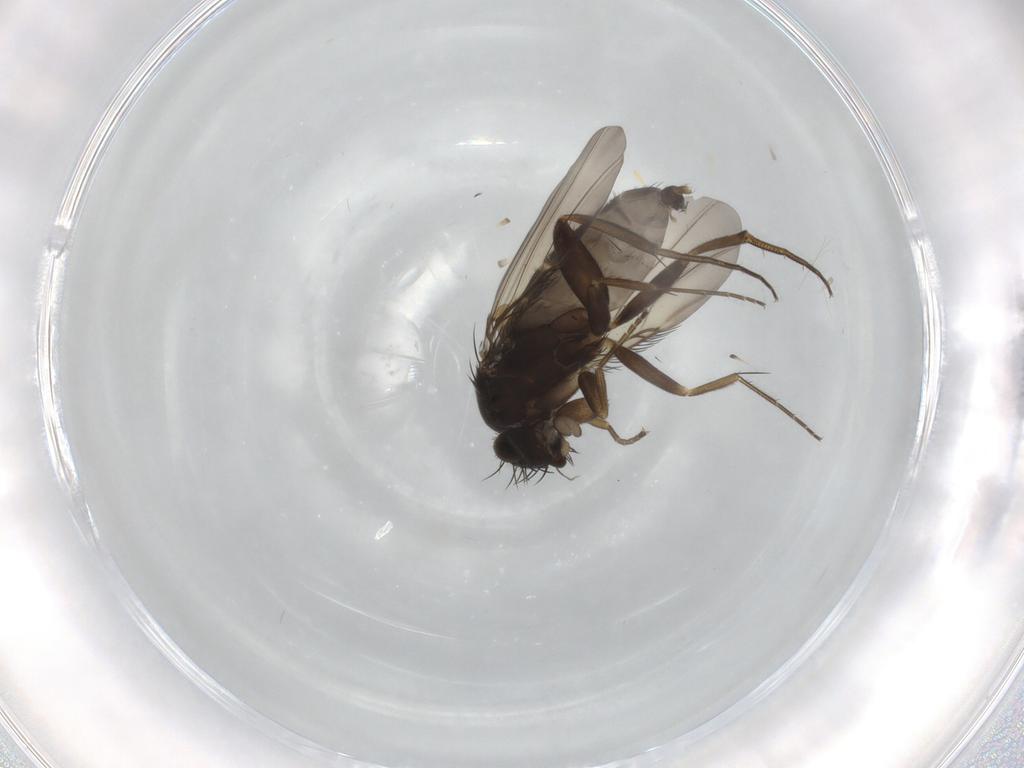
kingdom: Animalia
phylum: Arthropoda
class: Insecta
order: Diptera
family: Phoridae
